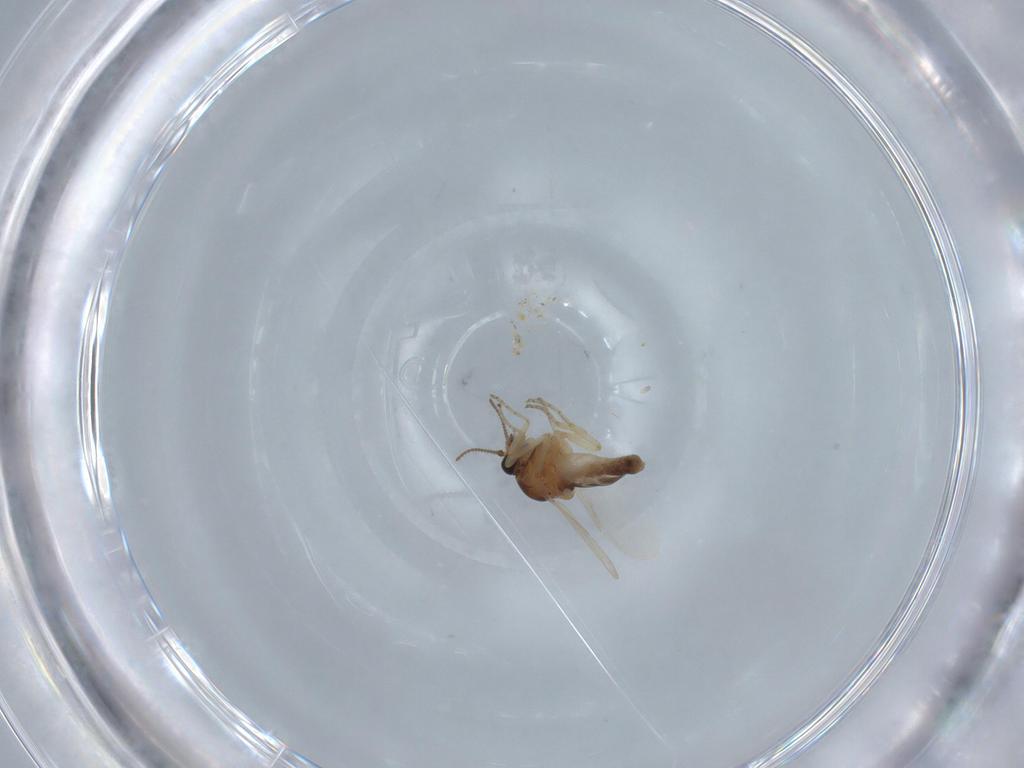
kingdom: Animalia
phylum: Arthropoda
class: Insecta
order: Diptera
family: Ceratopogonidae
